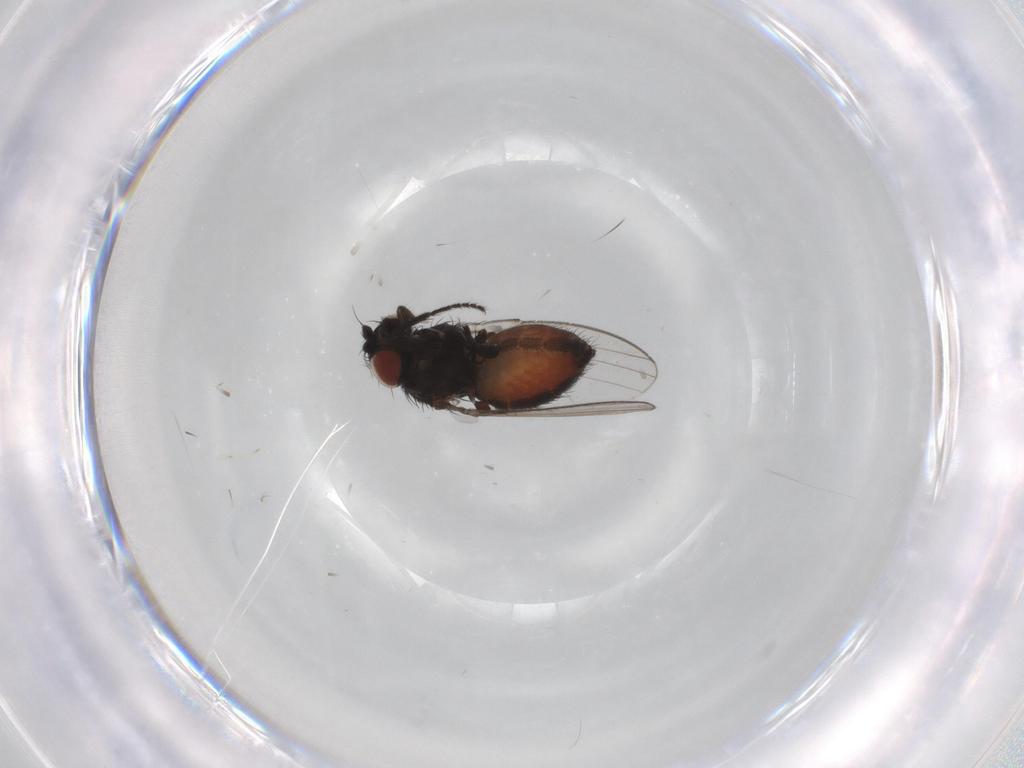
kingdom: Animalia
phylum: Arthropoda
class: Insecta
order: Diptera
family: Milichiidae
